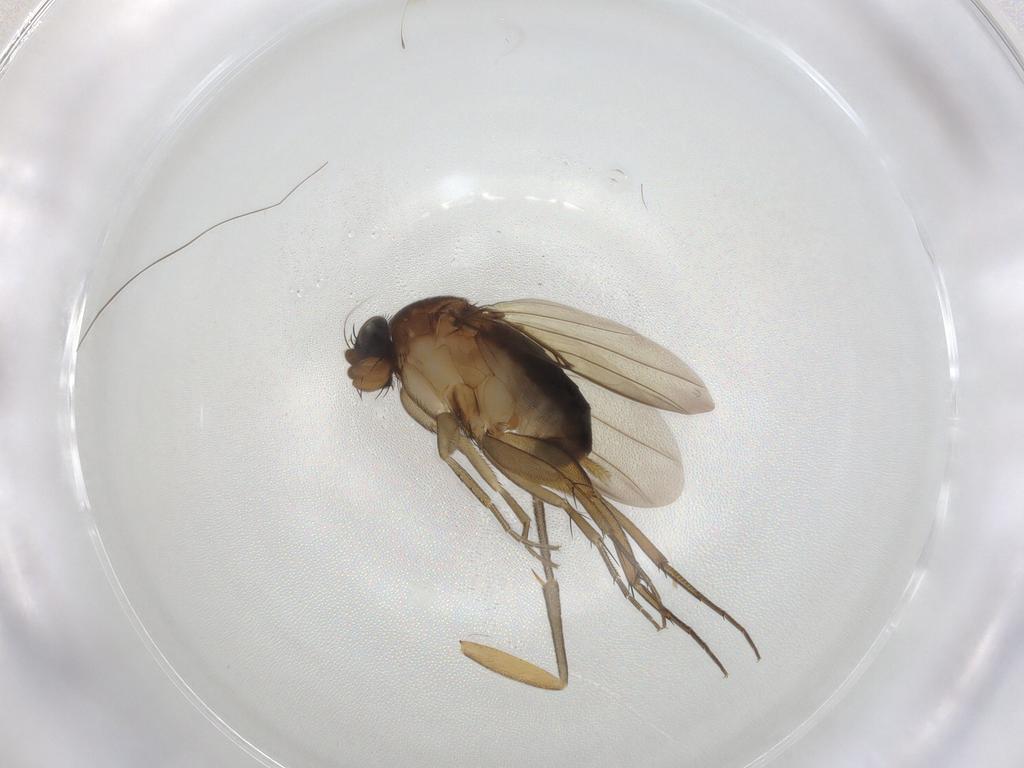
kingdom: Animalia
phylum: Arthropoda
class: Insecta
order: Diptera
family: Phoridae
